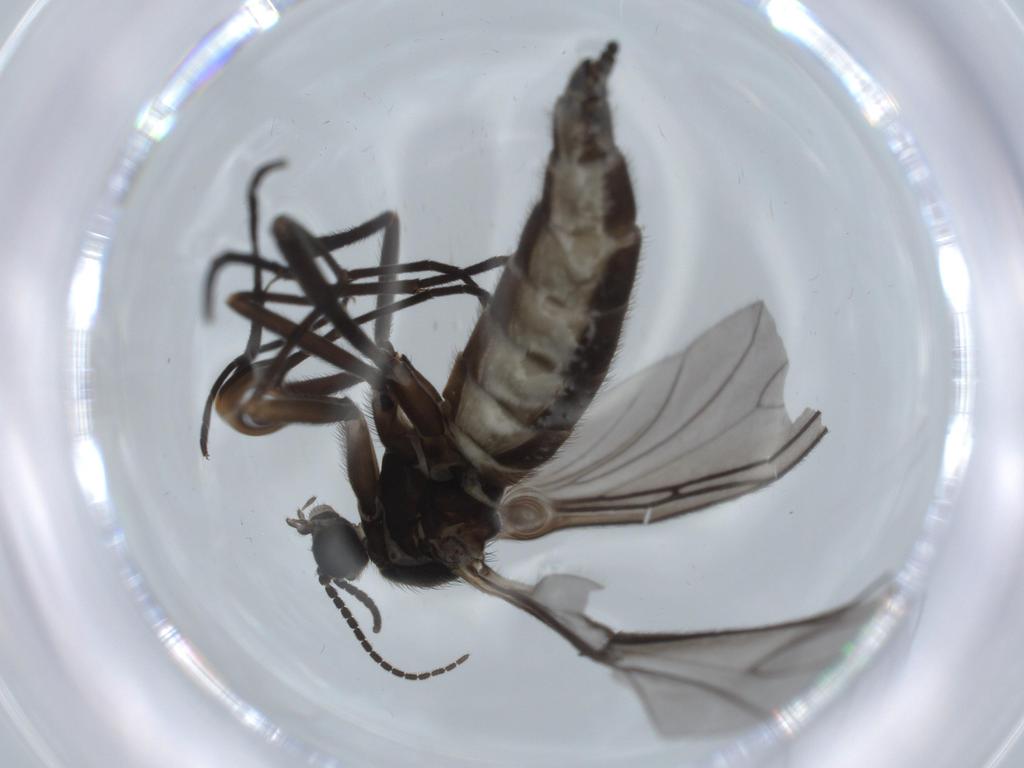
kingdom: Animalia
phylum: Arthropoda
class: Insecta
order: Diptera
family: Sciaridae
